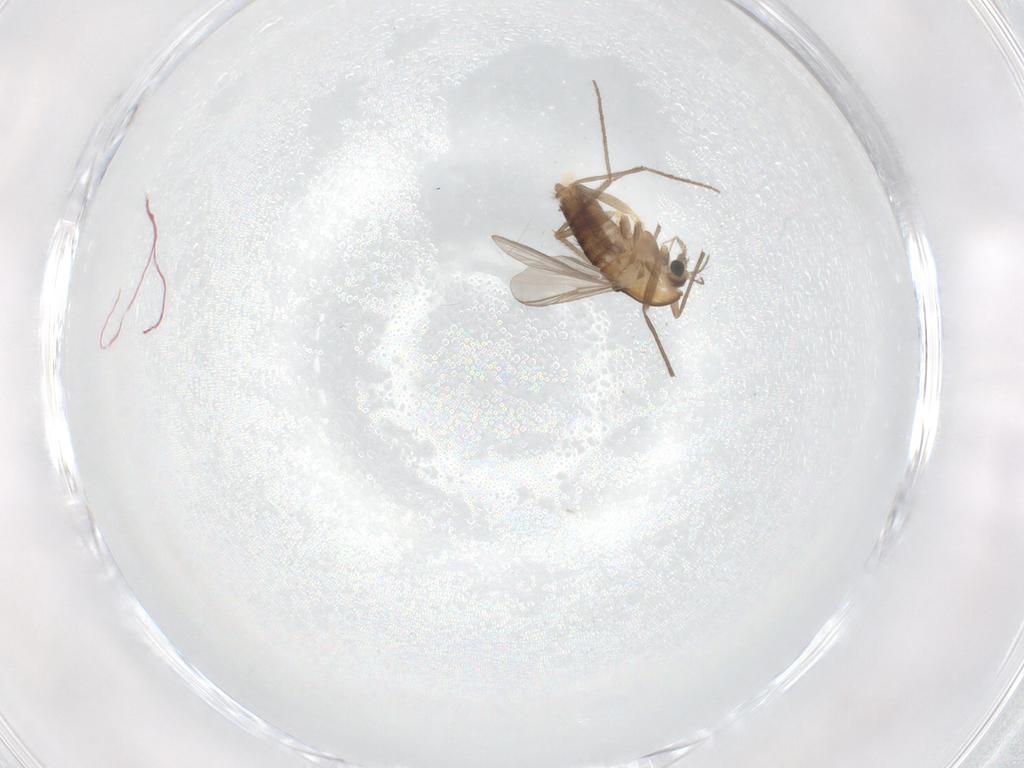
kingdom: Animalia
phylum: Arthropoda
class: Insecta
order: Diptera
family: Chironomidae
